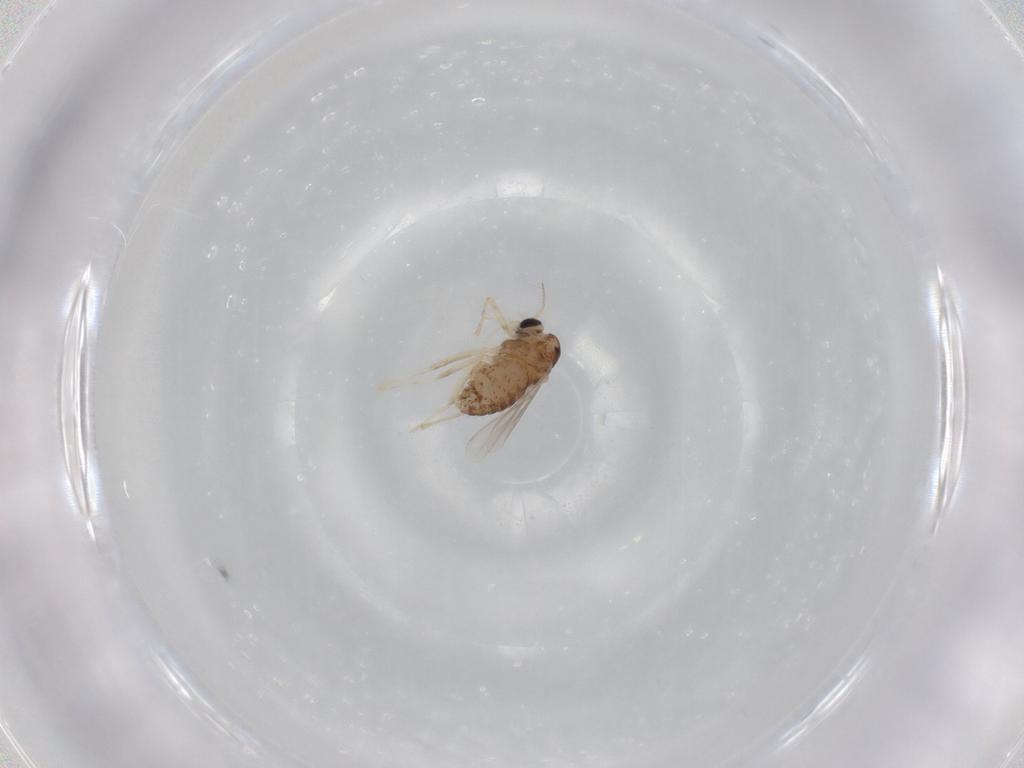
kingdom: Animalia
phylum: Arthropoda
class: Insecta
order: Diptera
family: Chironomidae
